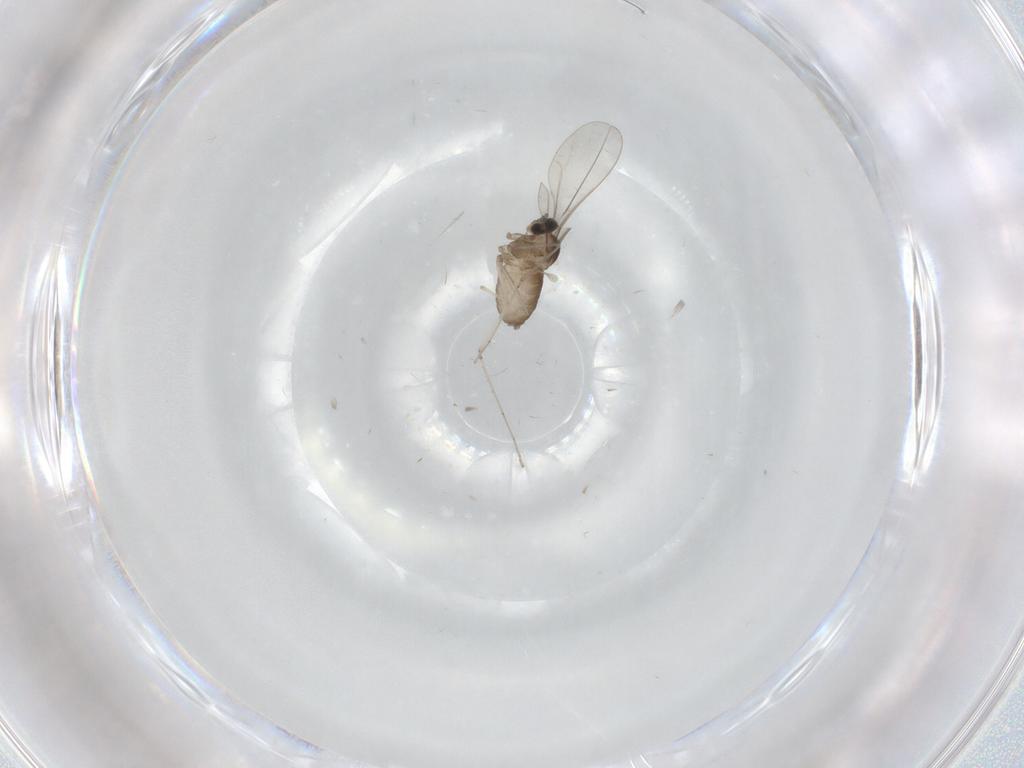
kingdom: Animalia
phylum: Arthropoda
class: Insecta
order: Diptera
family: Cecidomyiidae
